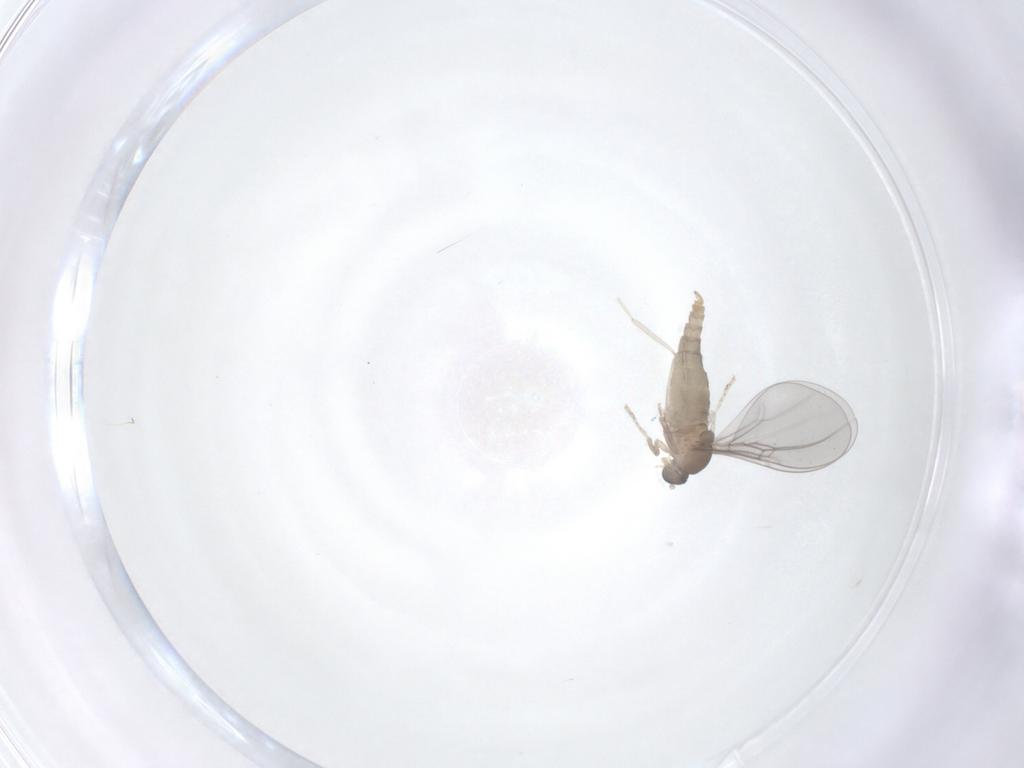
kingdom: Animalia
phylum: Arthropoda
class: Insecta
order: Diptera
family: Cecidomyiidae
